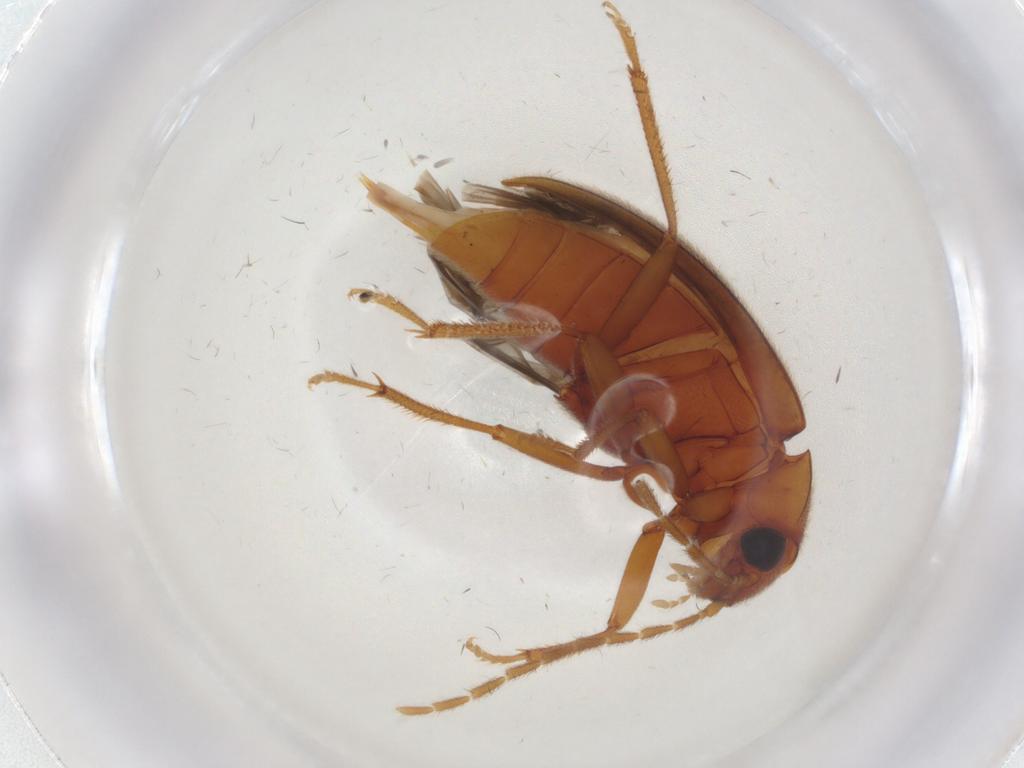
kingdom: Animalia
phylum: Arthropoda
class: Insecta
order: Coleoptera
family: Ptilodactylidae
